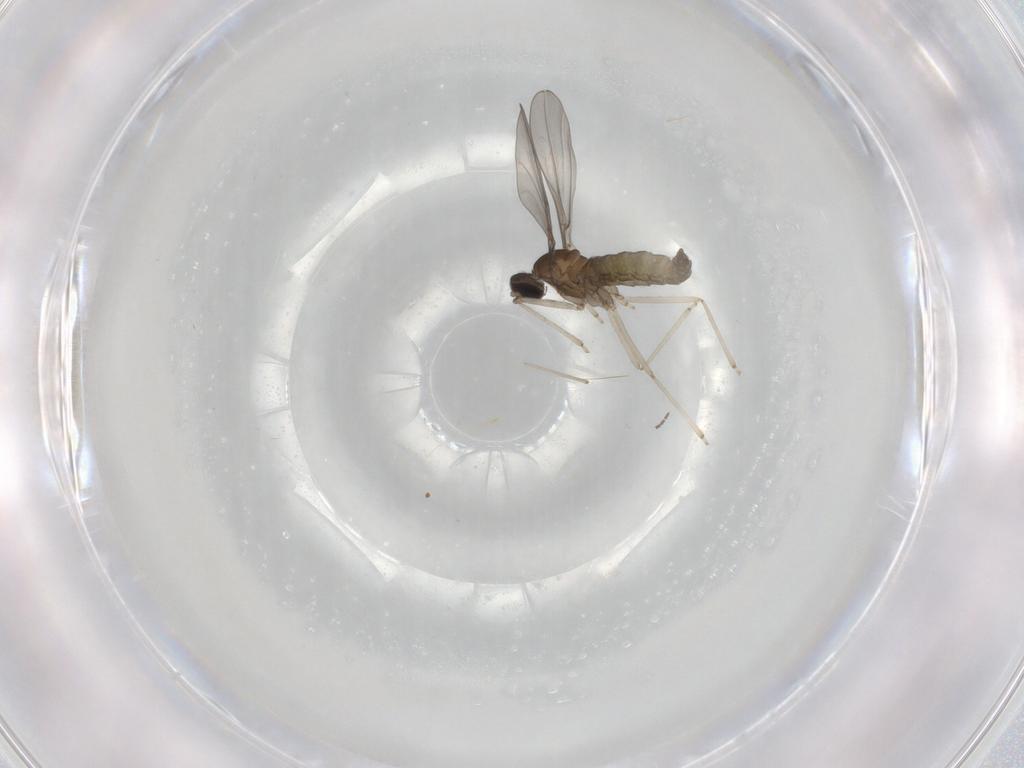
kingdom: Animalia
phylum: Arthropoda
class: Insecta
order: Diptera
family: Cecidomyiidae
